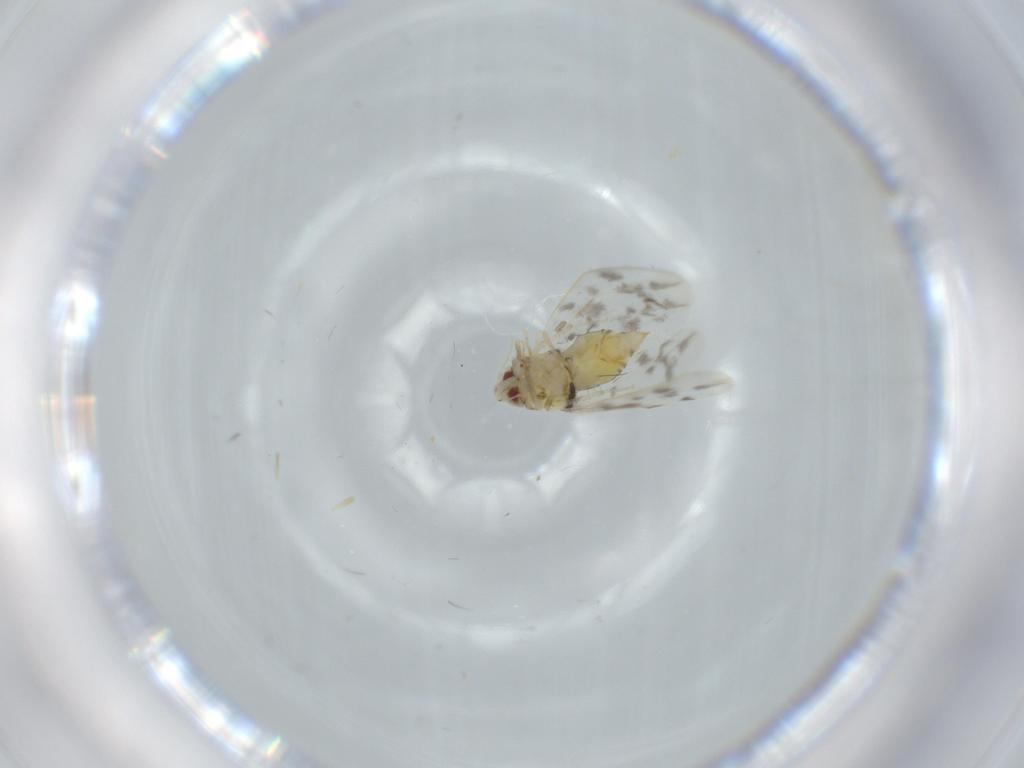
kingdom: Animalia
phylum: Arthropoda
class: Insecta
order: Hemiptera
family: Aleyrodidae
